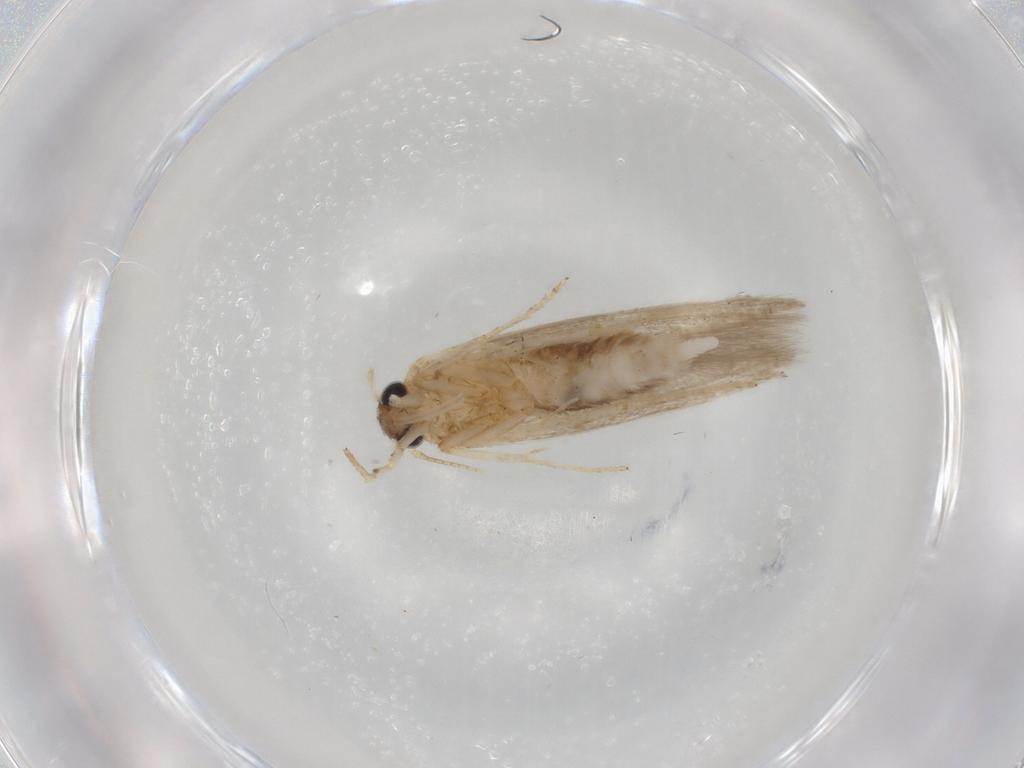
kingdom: Animalia
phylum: Arthropoda
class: Insecta
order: Lepidoptera
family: Blastobasidae
